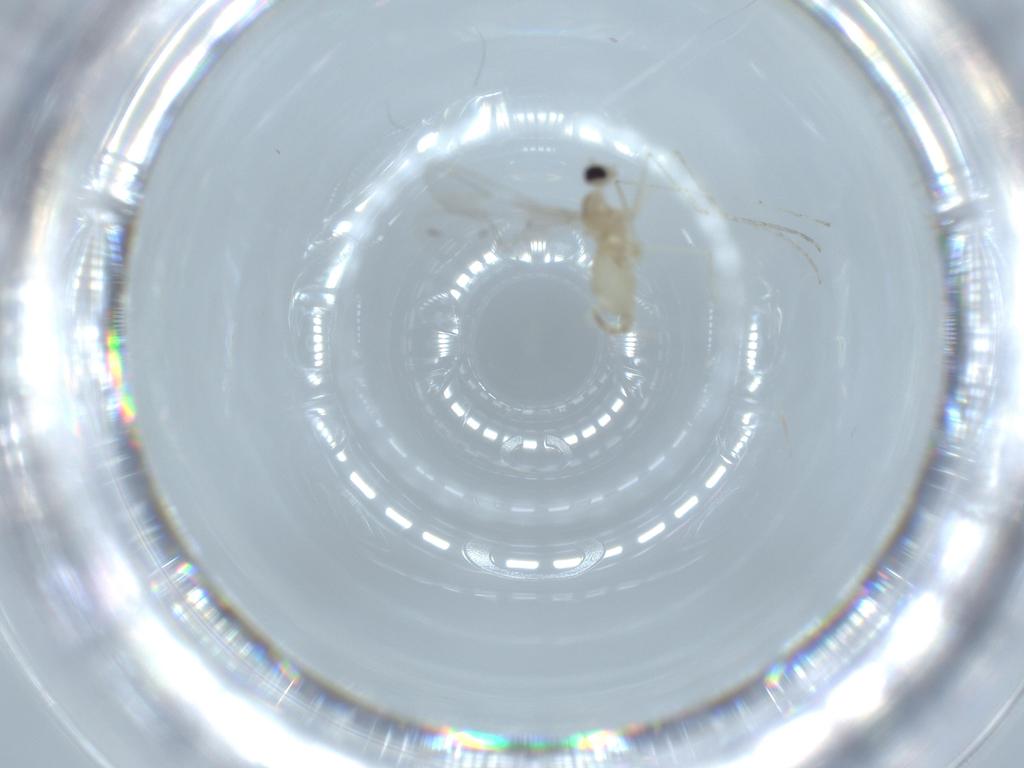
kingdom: Animalia
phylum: Arthropoda
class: Insecta
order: Diptera
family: Cecidomyiidae
